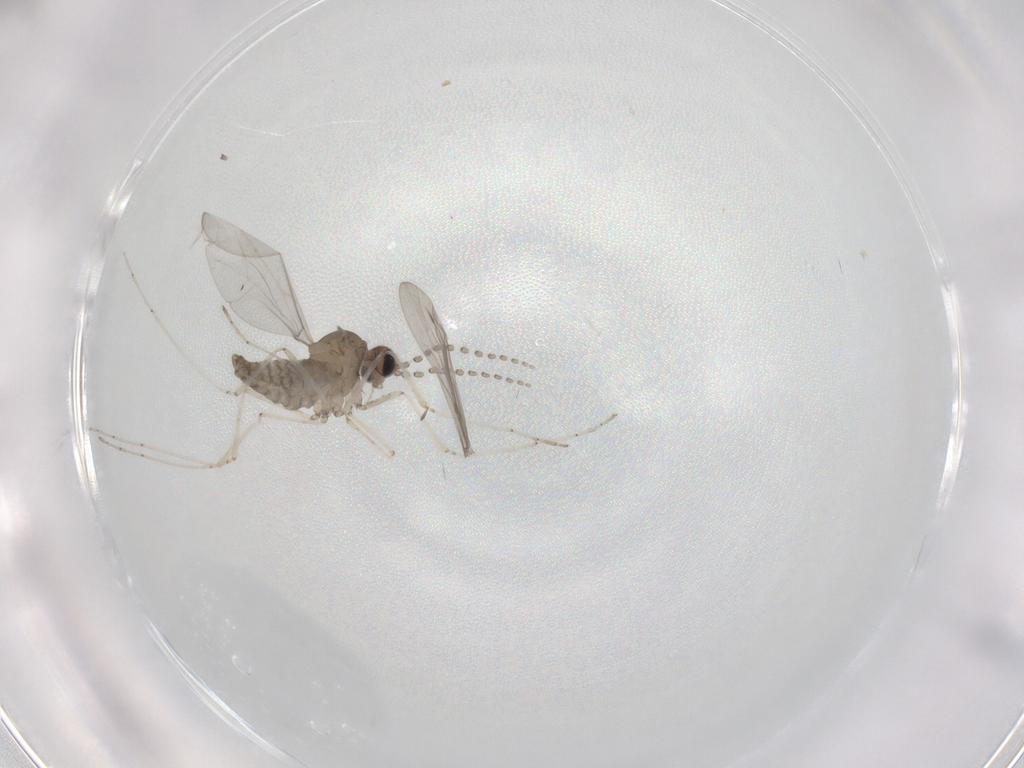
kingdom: Animalia
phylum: Arthropoda
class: Insecta
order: Diptera
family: Cecidomyiidae
